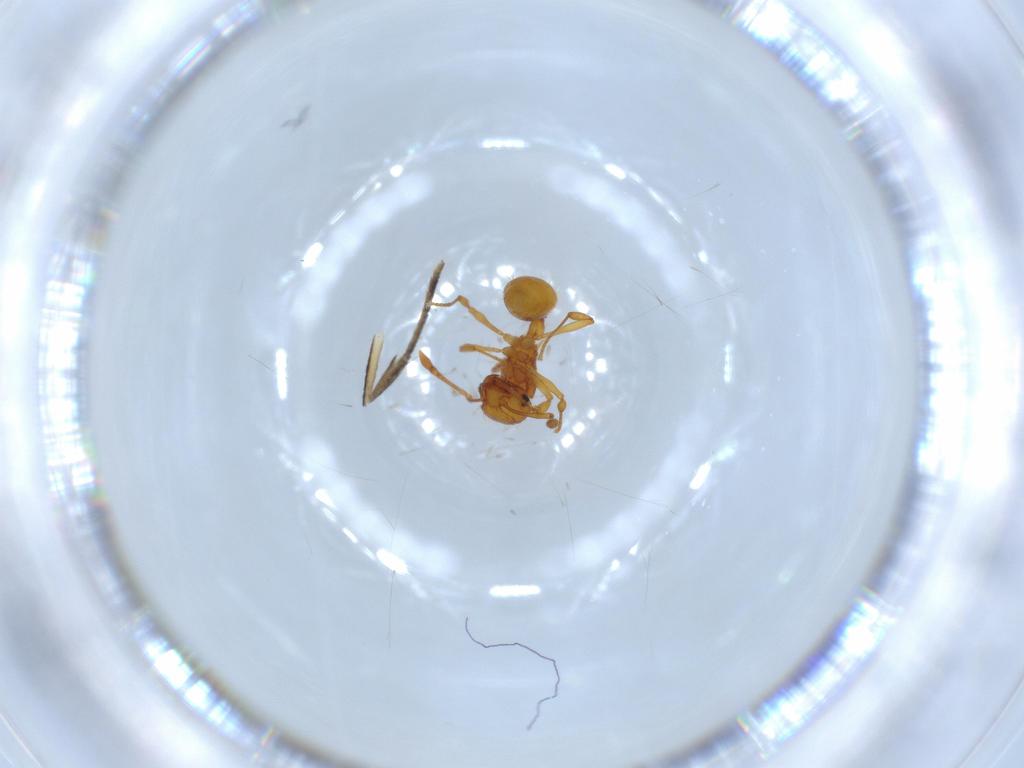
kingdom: Animalia
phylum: Arthropoda
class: Insecta
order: Hymenoptera
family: Formicidae
